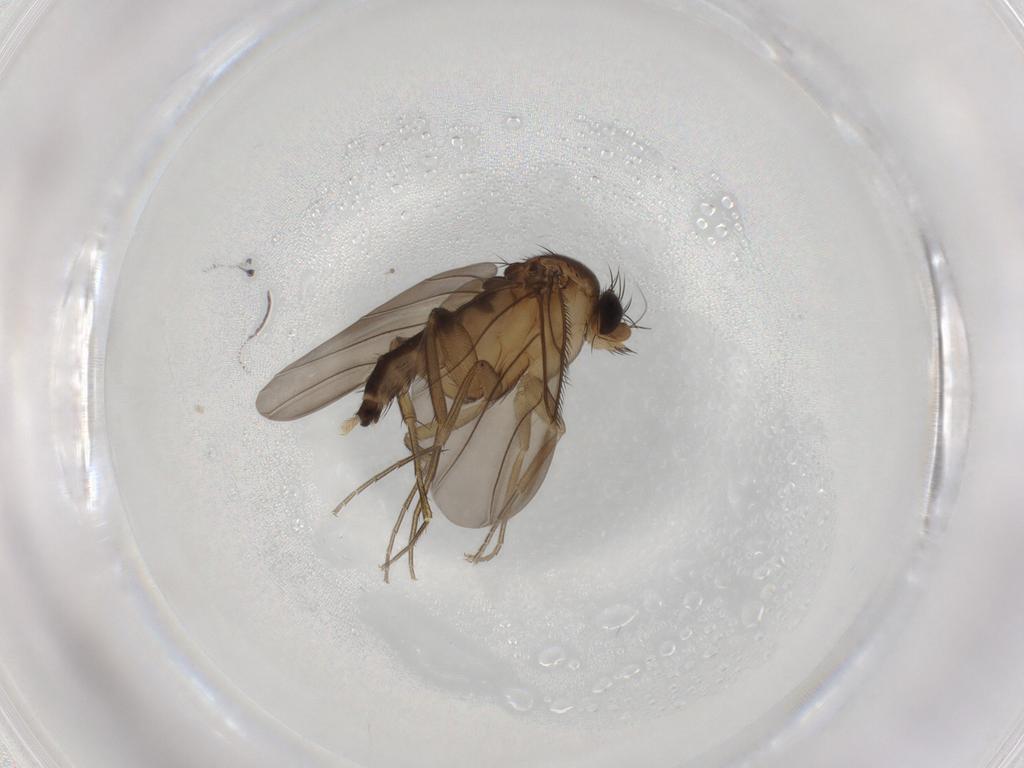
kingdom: Animalia
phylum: Arthropoda
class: Insecta
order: Diptera
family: Phoridae
